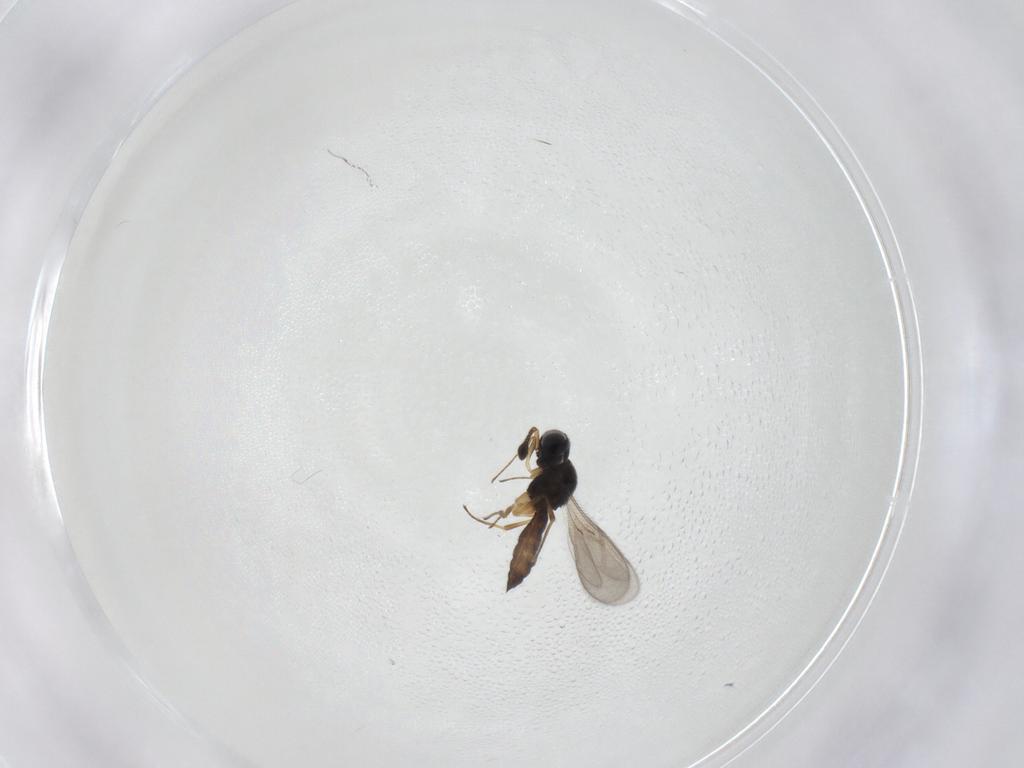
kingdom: Animalia
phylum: Arthropoda
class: Insecta
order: Hymenoptera
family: Scelionidae
